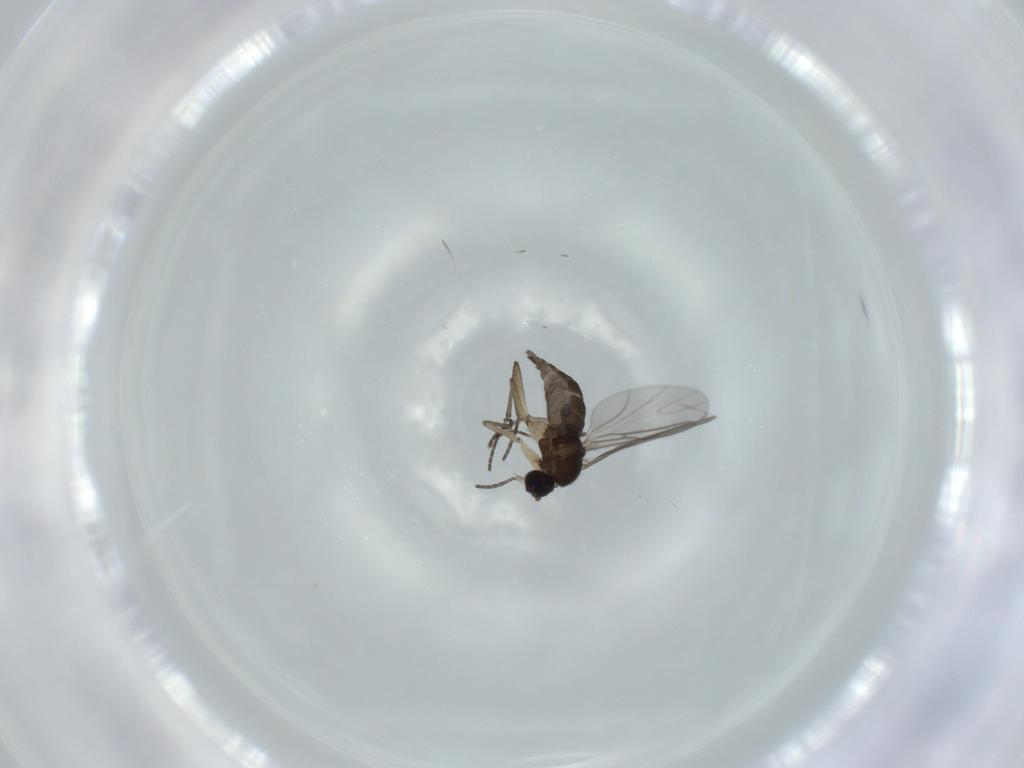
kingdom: Animalia
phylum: Arthropoda
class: Insecta
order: Diptera
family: Sciaridae
